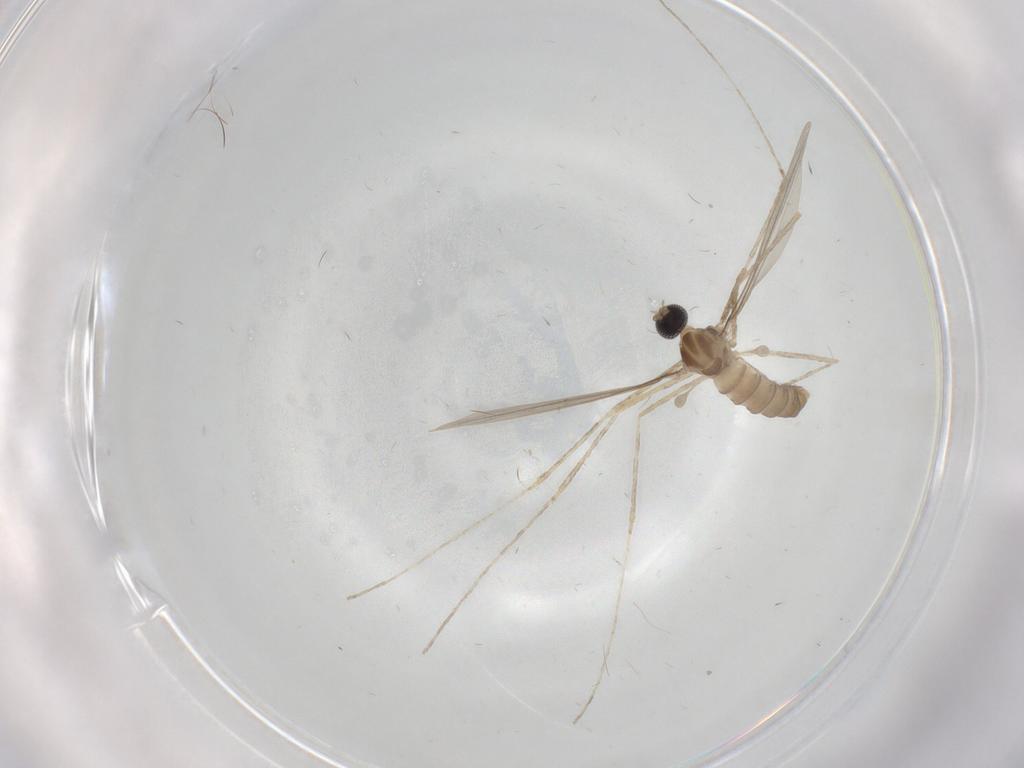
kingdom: Animalia
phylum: Arthropoda
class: Insecta
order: Diptera
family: Cecidomyiidae
